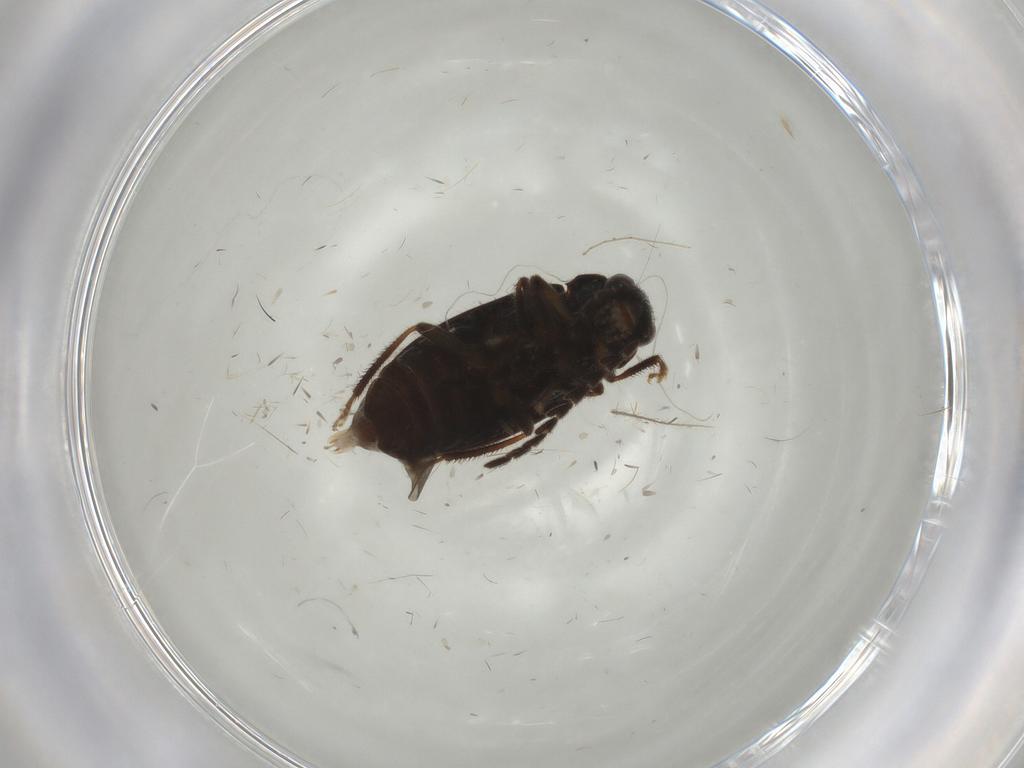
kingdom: Animalia
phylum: Arthropoda
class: Insecta
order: Coleoptera
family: Ptilodactylidae
